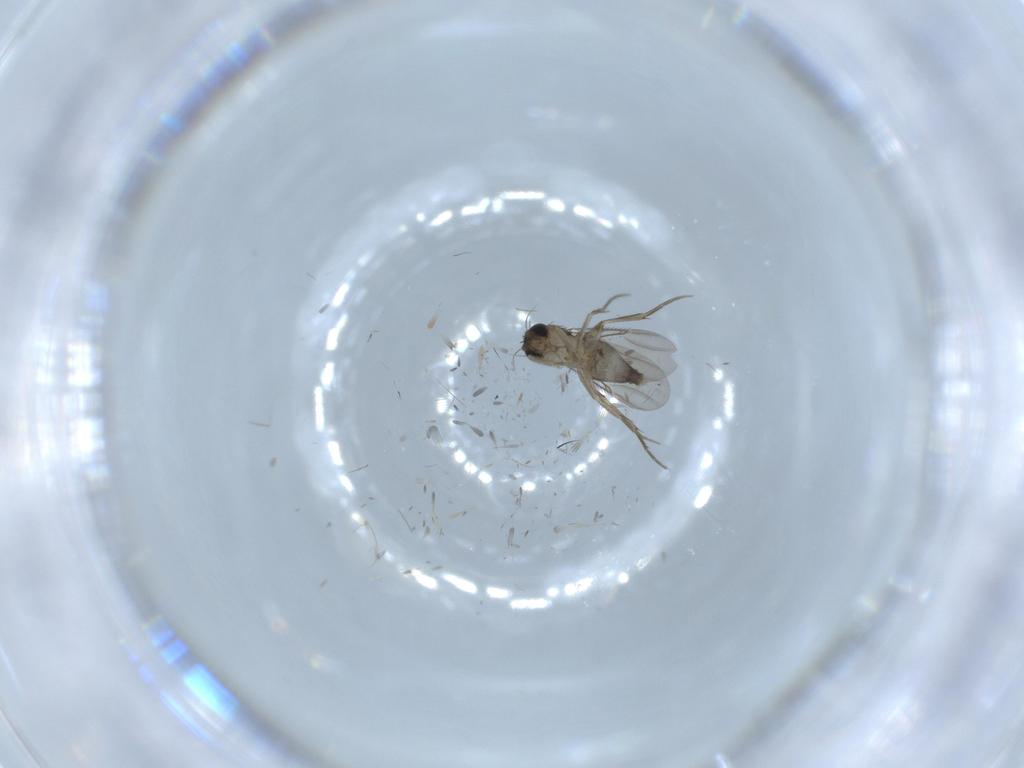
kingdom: Animalia
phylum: Arthropoda
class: Insecta
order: Diptera
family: Phoridae
